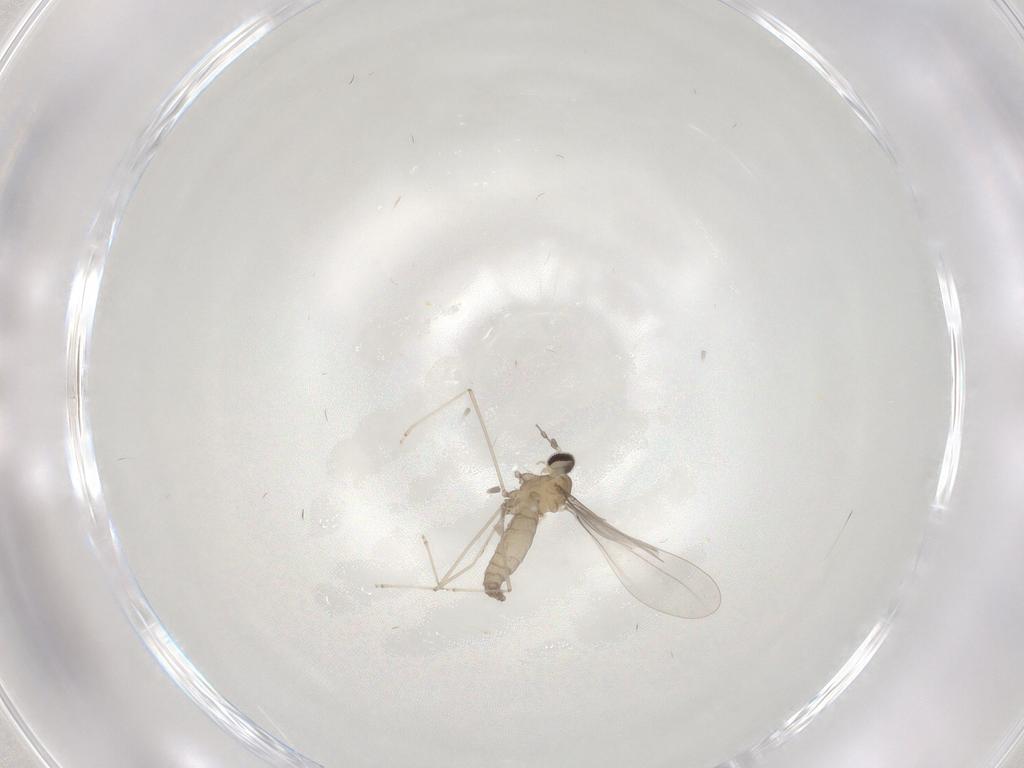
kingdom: Animalia
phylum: Arthropoda
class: Insecta
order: Diptera
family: Cecidomyiidae
